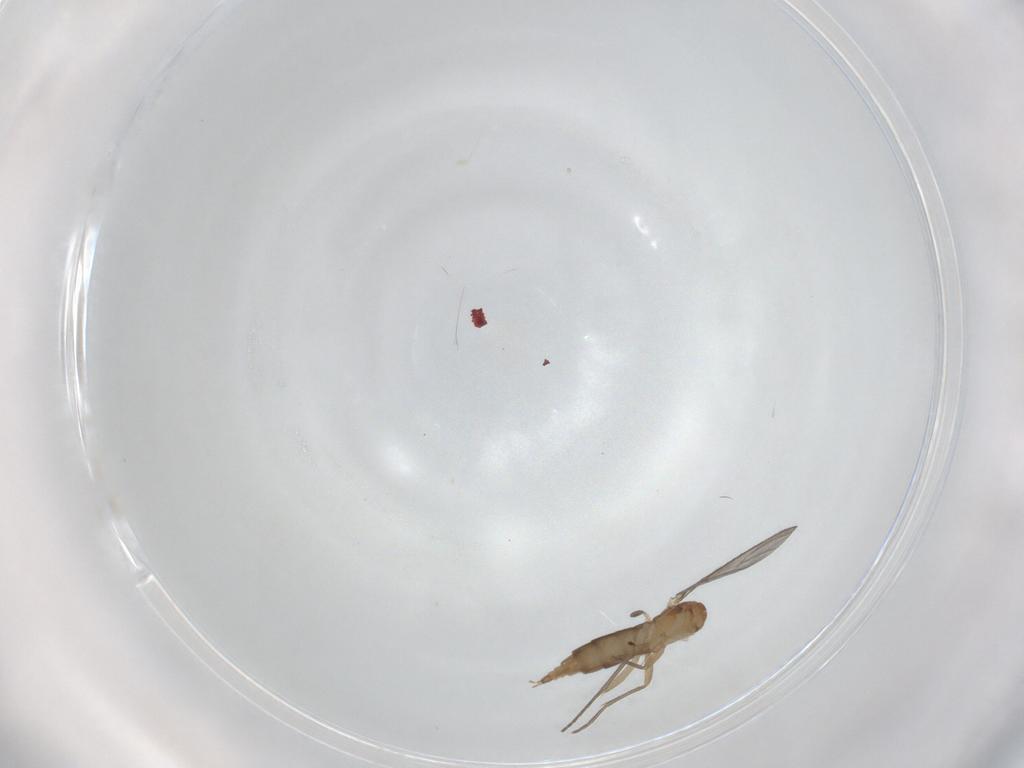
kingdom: Animalia
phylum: Arthropoda
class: Insecta
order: Diptera
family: Sciaridae
